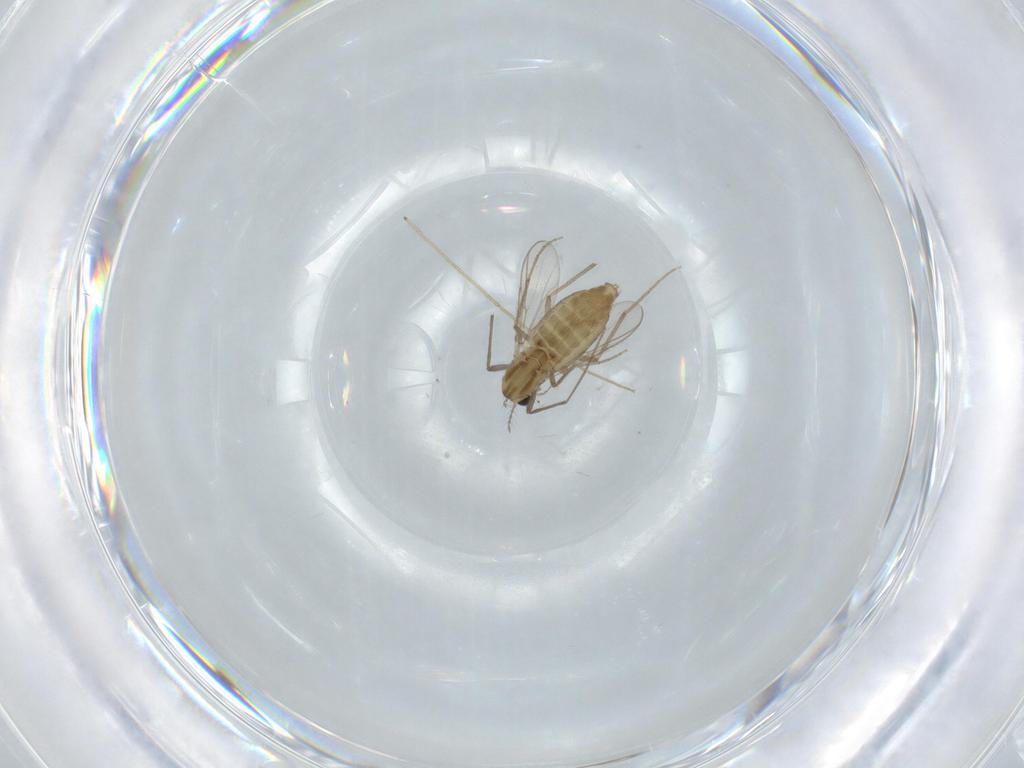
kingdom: Animalia
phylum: Arthropoda
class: Insecta
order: Diptera
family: Chironomidae
